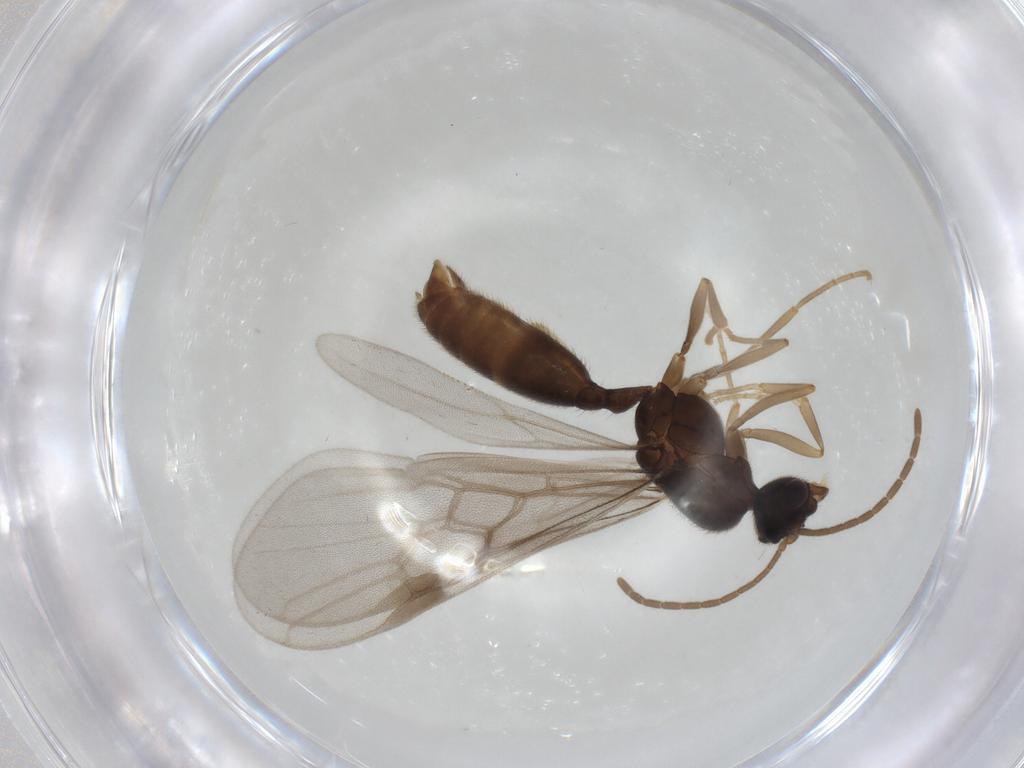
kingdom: Animalia
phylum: Arthropoda
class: Insecta
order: Hymenoptera
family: Formicidae
